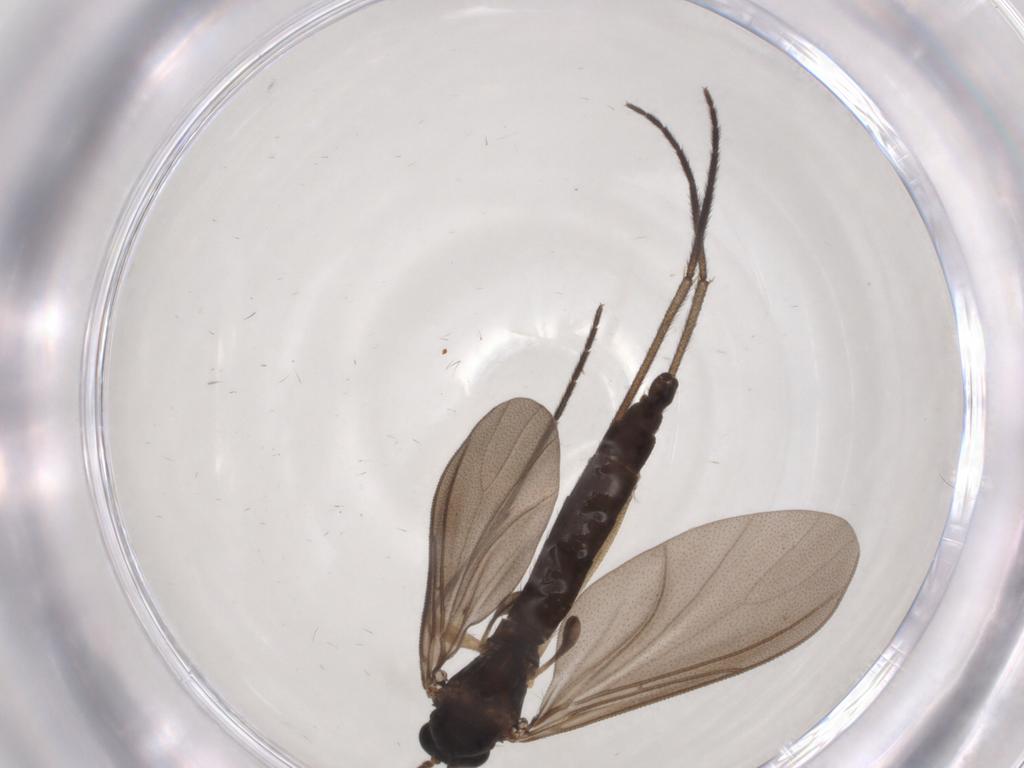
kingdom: Animalia
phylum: Arthropoda
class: Insecta
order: Diptera
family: Sciaridae
